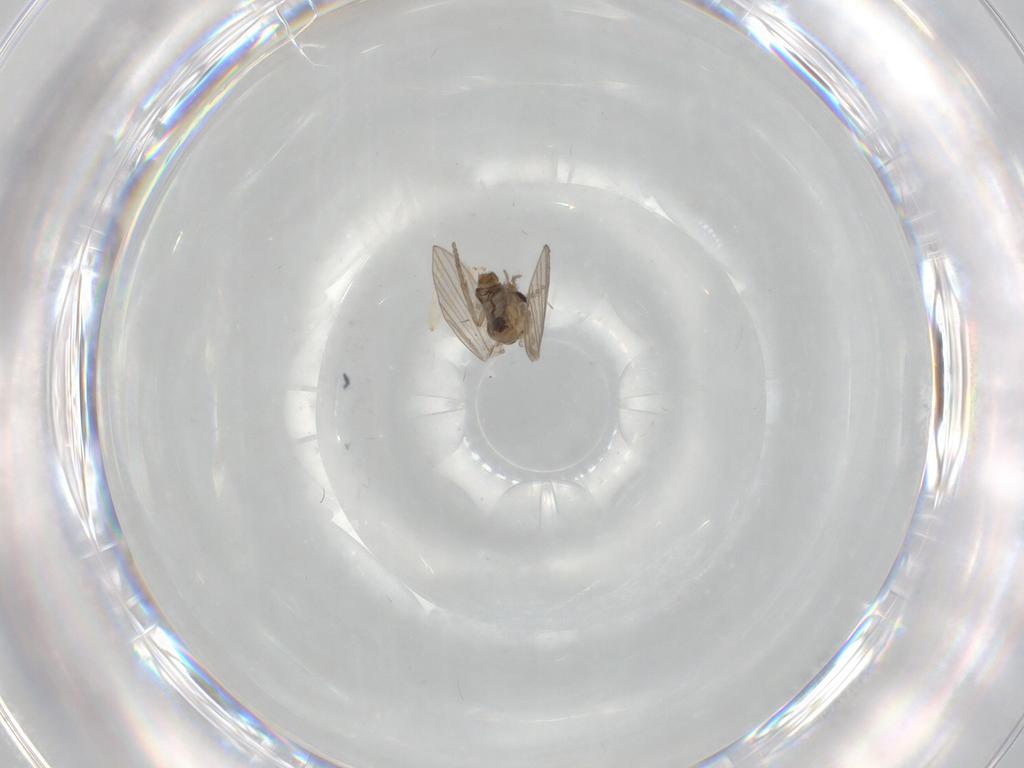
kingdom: Animalia
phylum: Arthropoda
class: Insecta
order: Diptera
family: Psychodidae
